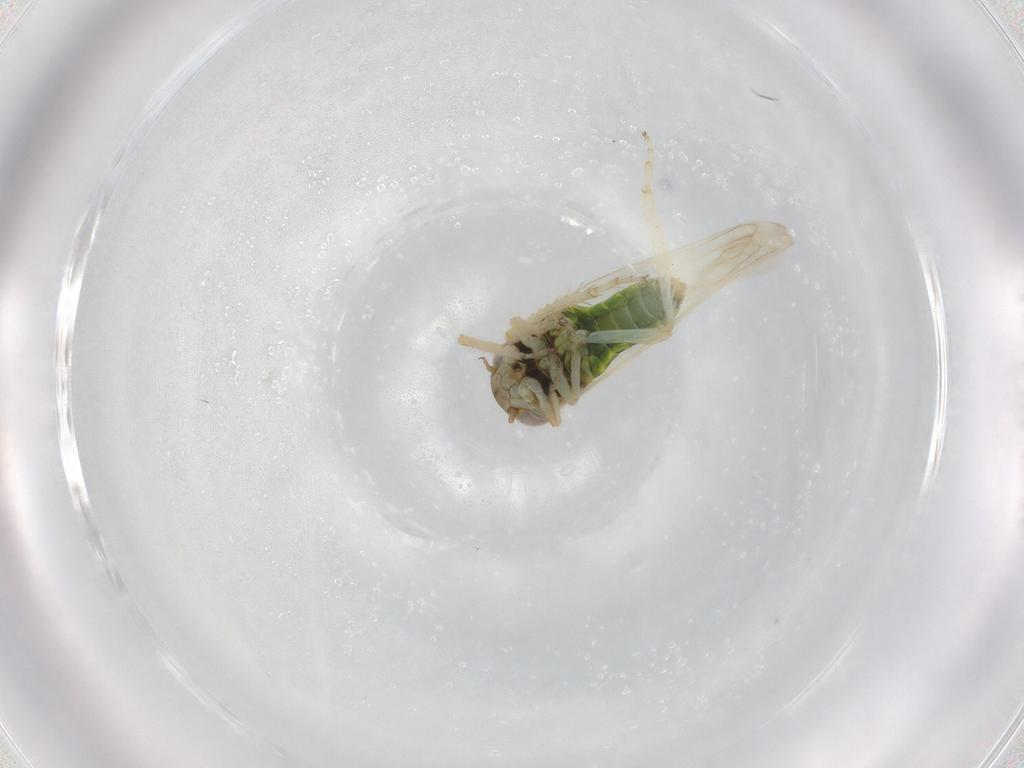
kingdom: Animalia
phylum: Arthropoda
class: Insecta
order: Hemiptera
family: Cicadellidae
